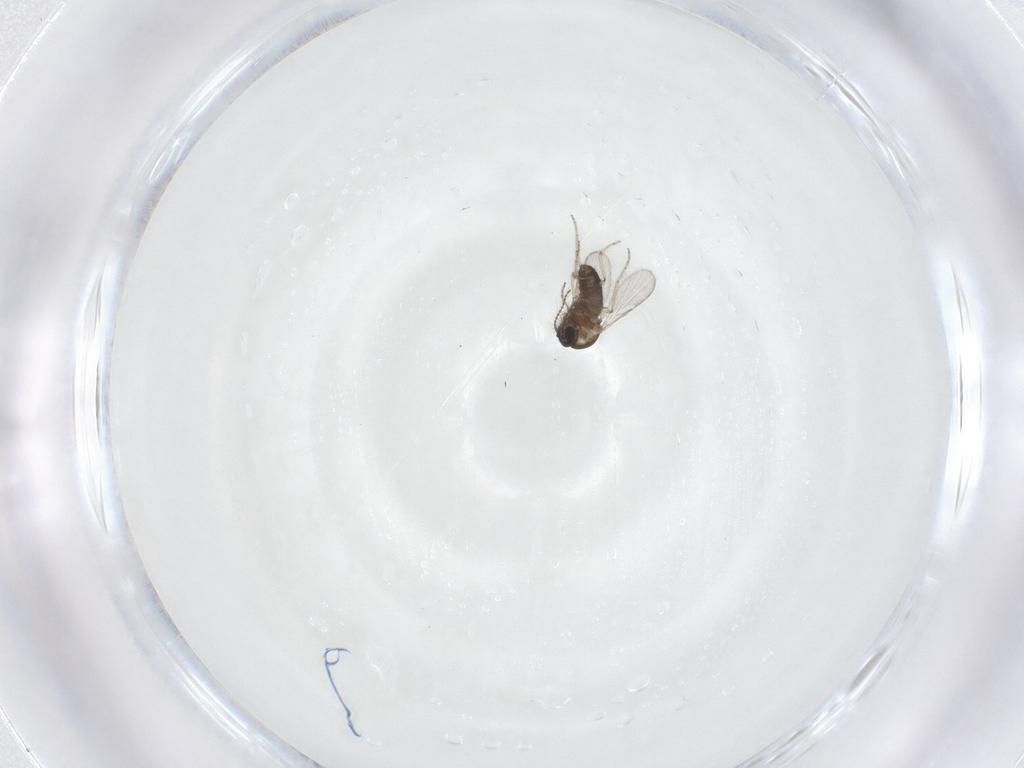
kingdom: Animalia
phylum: Arthropoda
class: Insecta
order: Diptera
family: Ceratopogonidae
